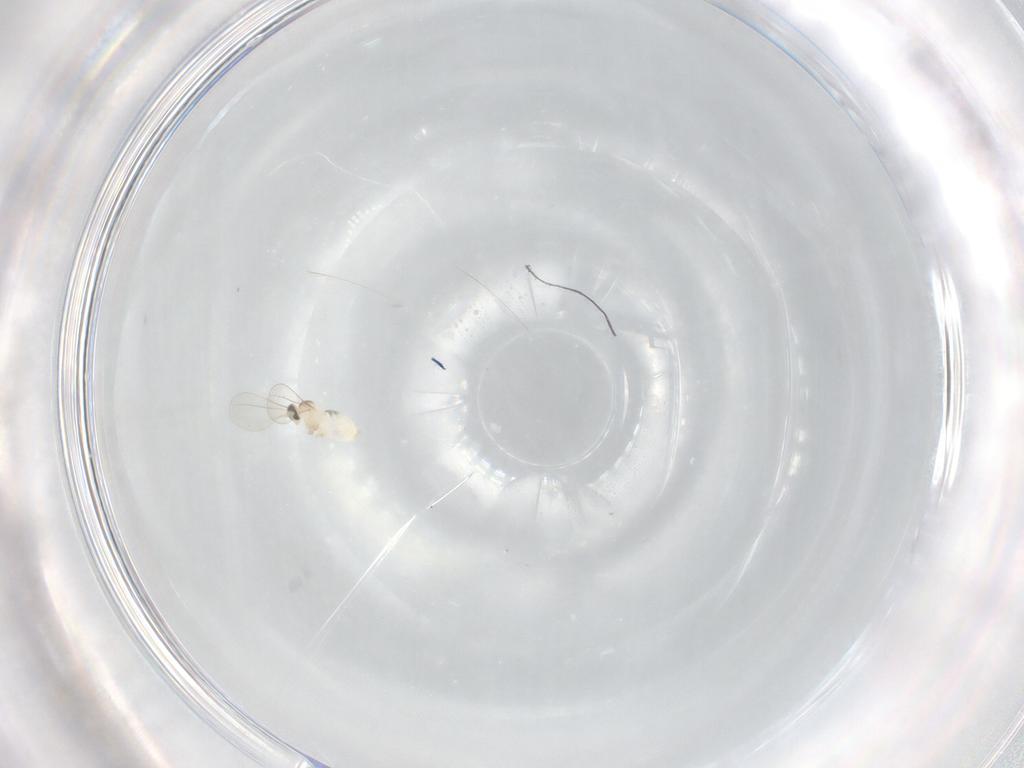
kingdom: Animalia
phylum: Arthropoda
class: Insecta
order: Diptera
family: Cecidomyiidae
